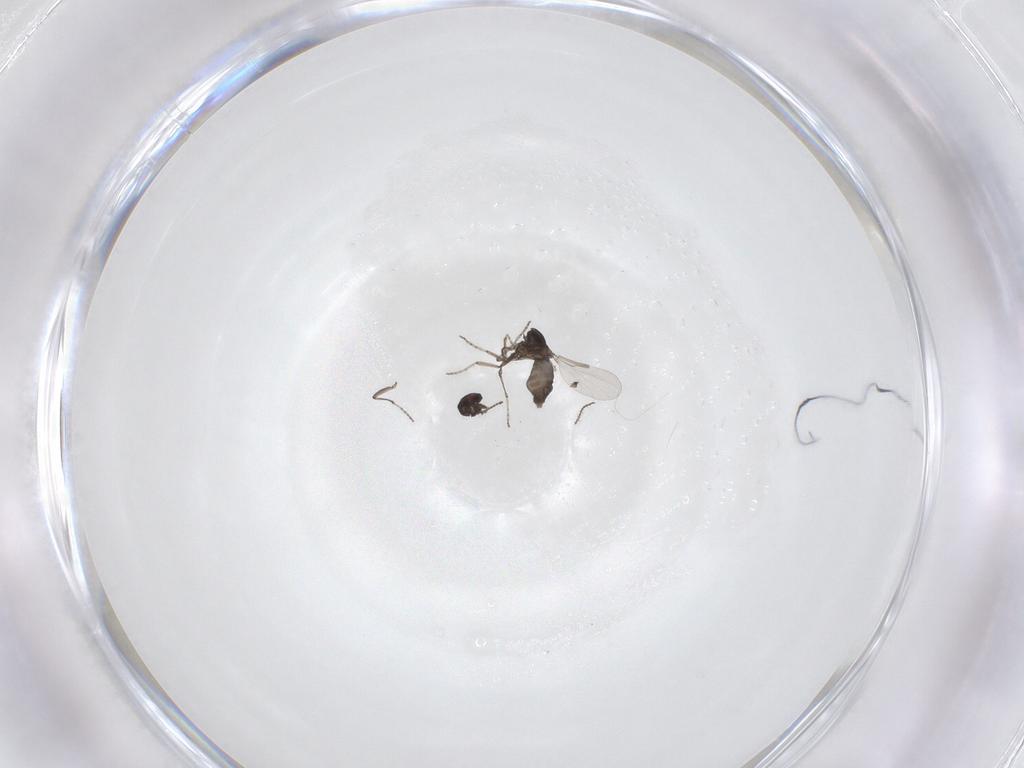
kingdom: Animalia
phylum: Arthropoda
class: Insecta
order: Diptera
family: Ceratopogonidae
